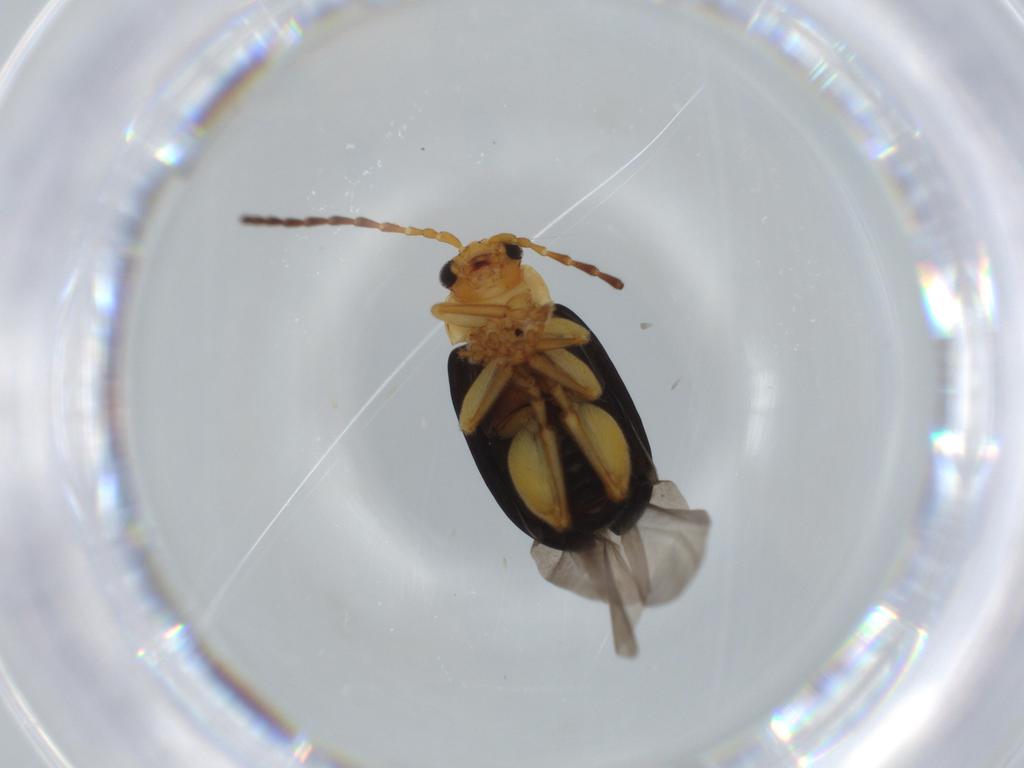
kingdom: Animalia
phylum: Arthropoda
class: Insecta
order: Coleoptera
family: Chrysomelidae
